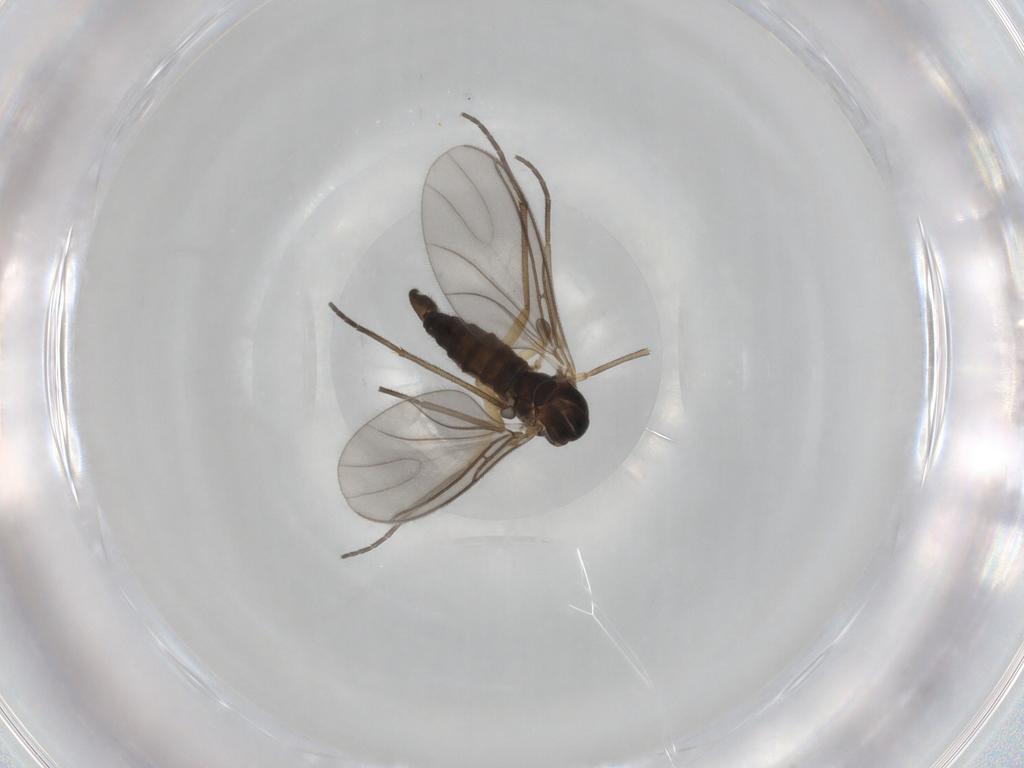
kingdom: Animalia
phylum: Arthropoda
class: Insecta
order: Diptera
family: Sciaridae
